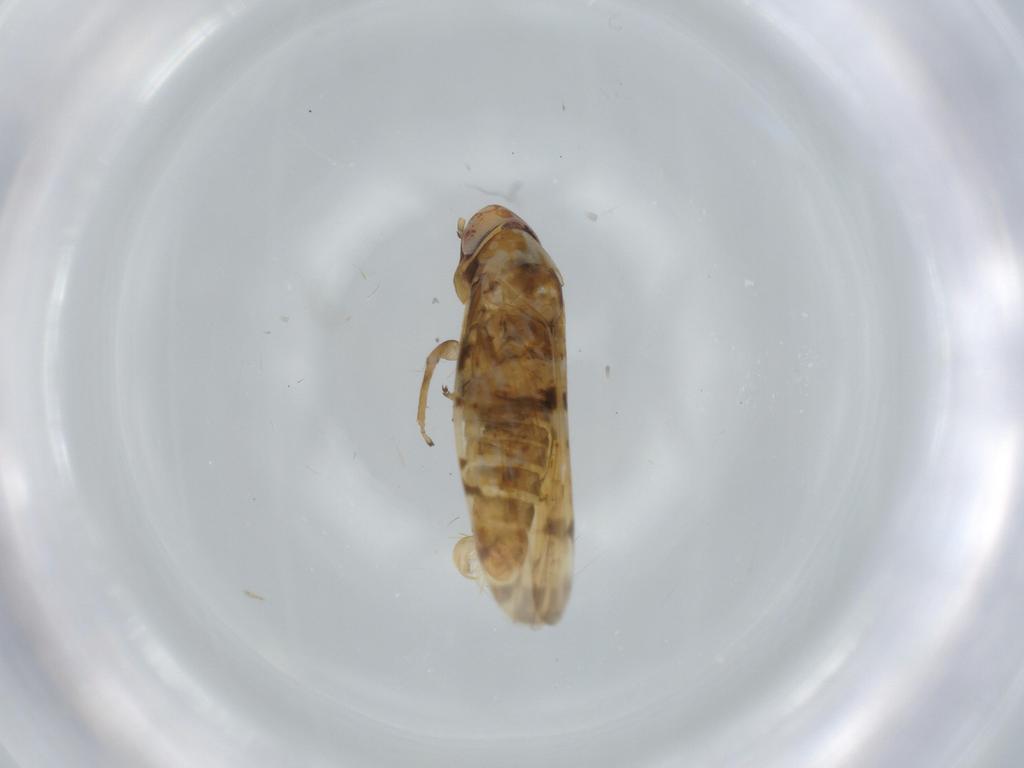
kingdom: Animalia
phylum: Arthropoda
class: Insecta
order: Hemiptera
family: Cicadellidae
